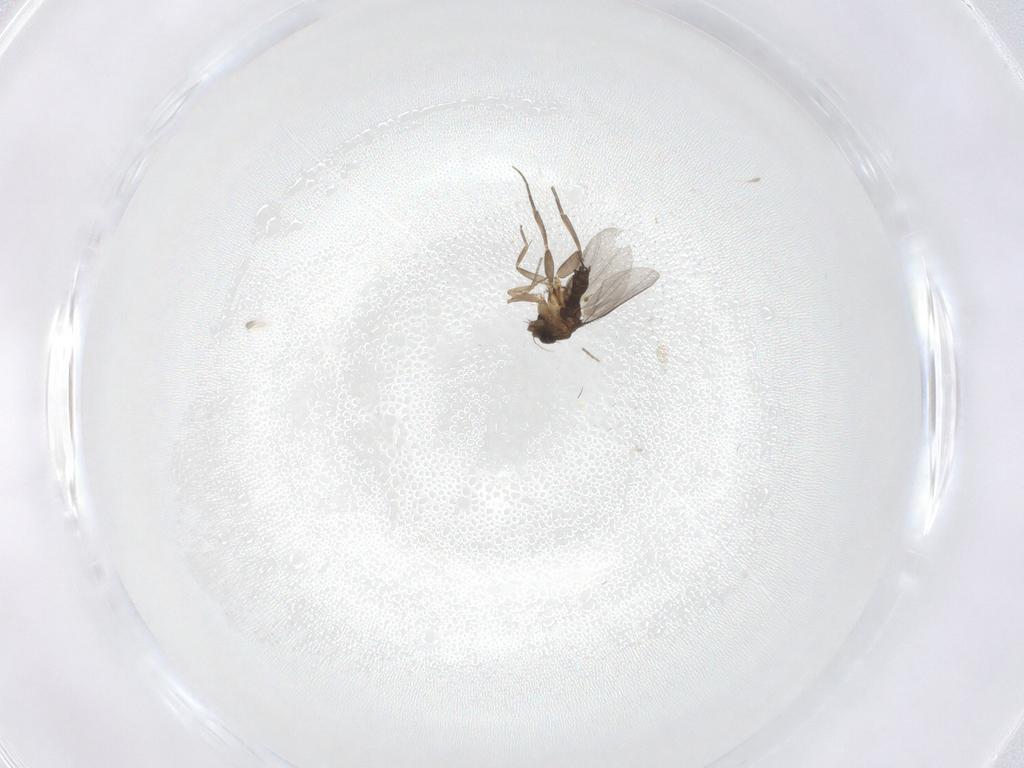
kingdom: Animalia
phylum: Arthropoda
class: Insecta
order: Diptera
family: Phoridae
